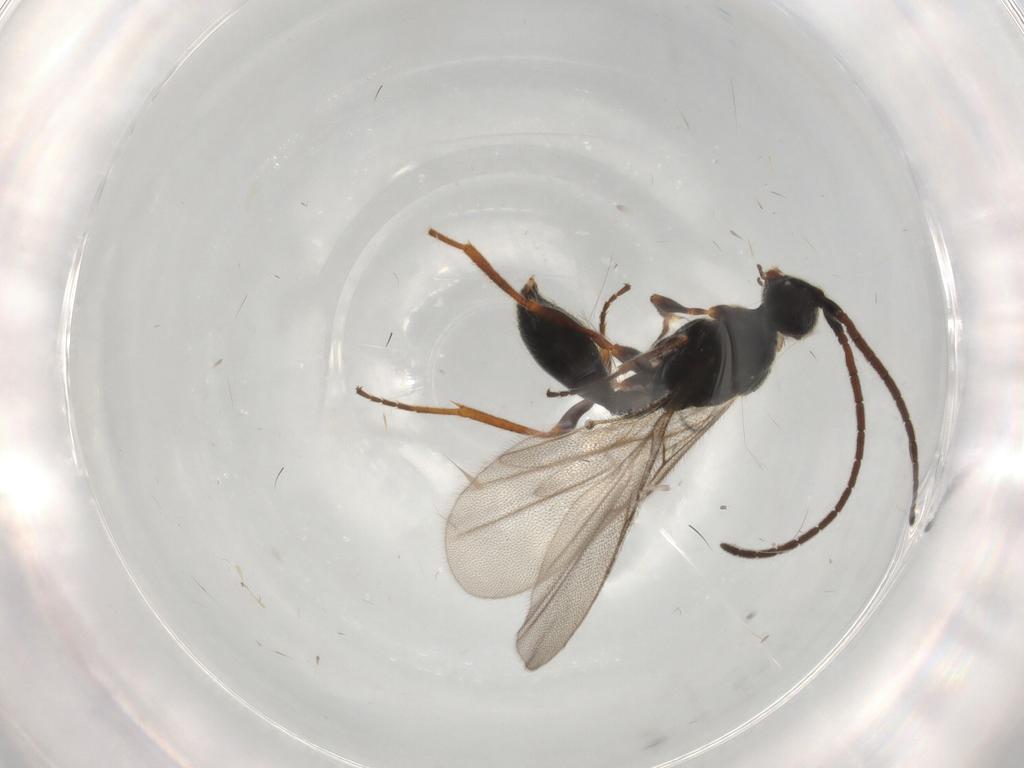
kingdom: Animalia
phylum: Arthropoda
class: Insecta
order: Hymenoptera
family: Diapriidae
